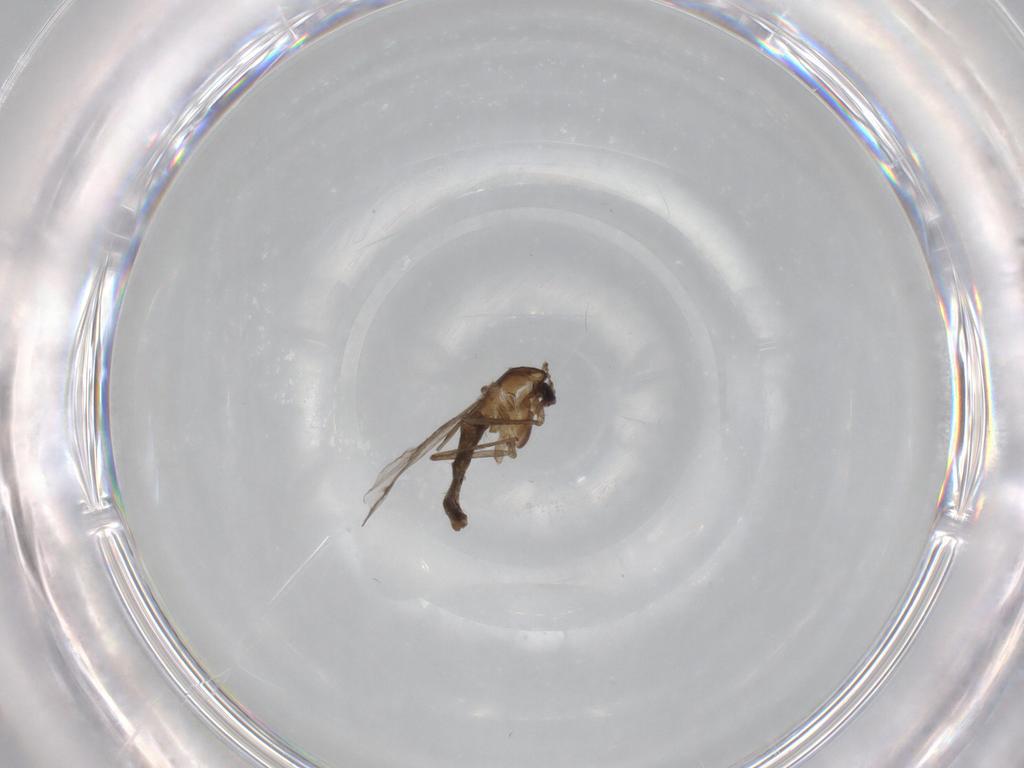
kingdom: Animalia
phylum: Arthropoda
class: Insecta
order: Diptera
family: Chironomidae
